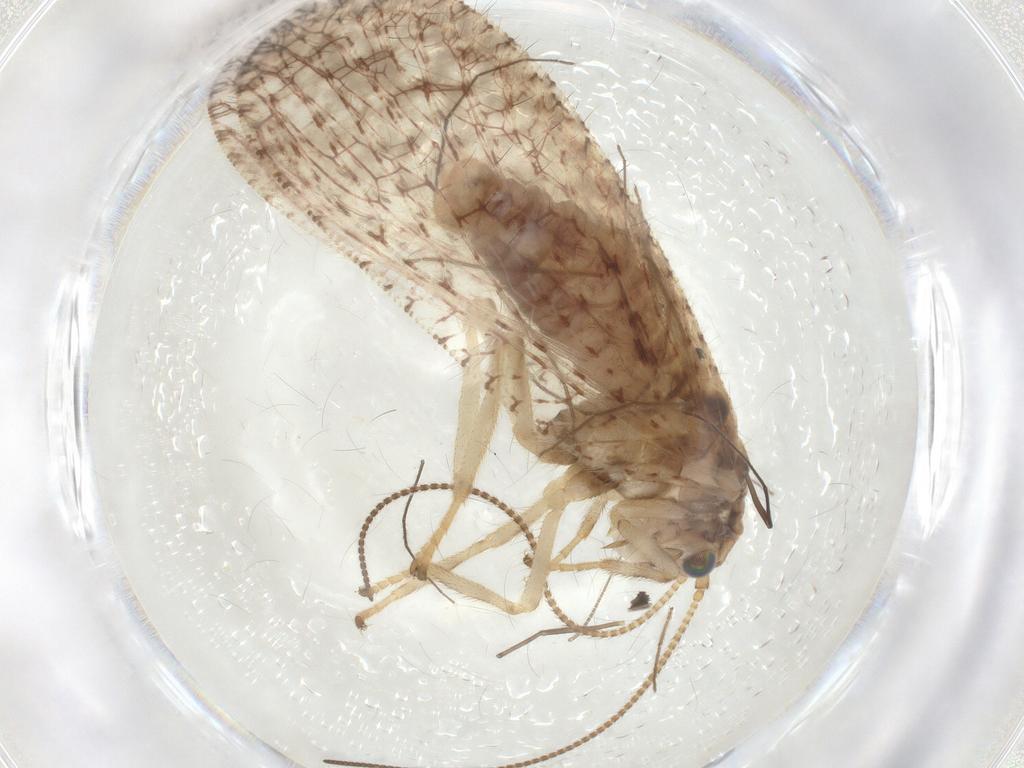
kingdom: Animalia
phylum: Arthropoda
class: Insecta
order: Neuroptera
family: Hemerobiidae
